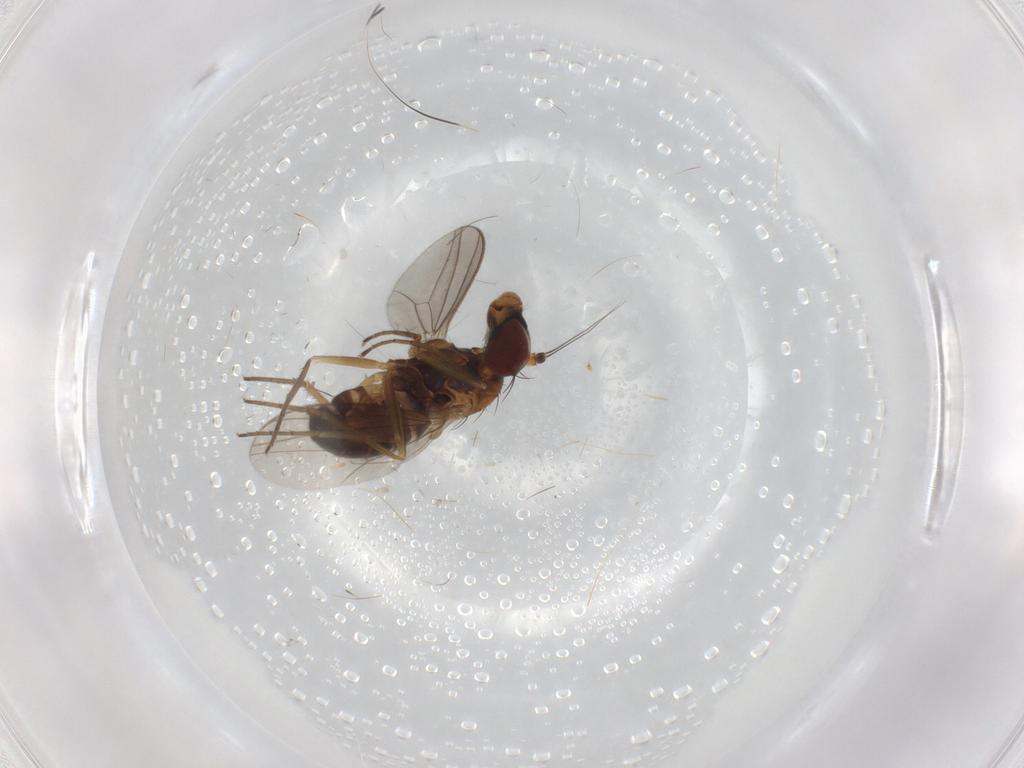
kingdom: Animalia
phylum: Arthropoda
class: Insecta
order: Diptera
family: Dolichopodidae
